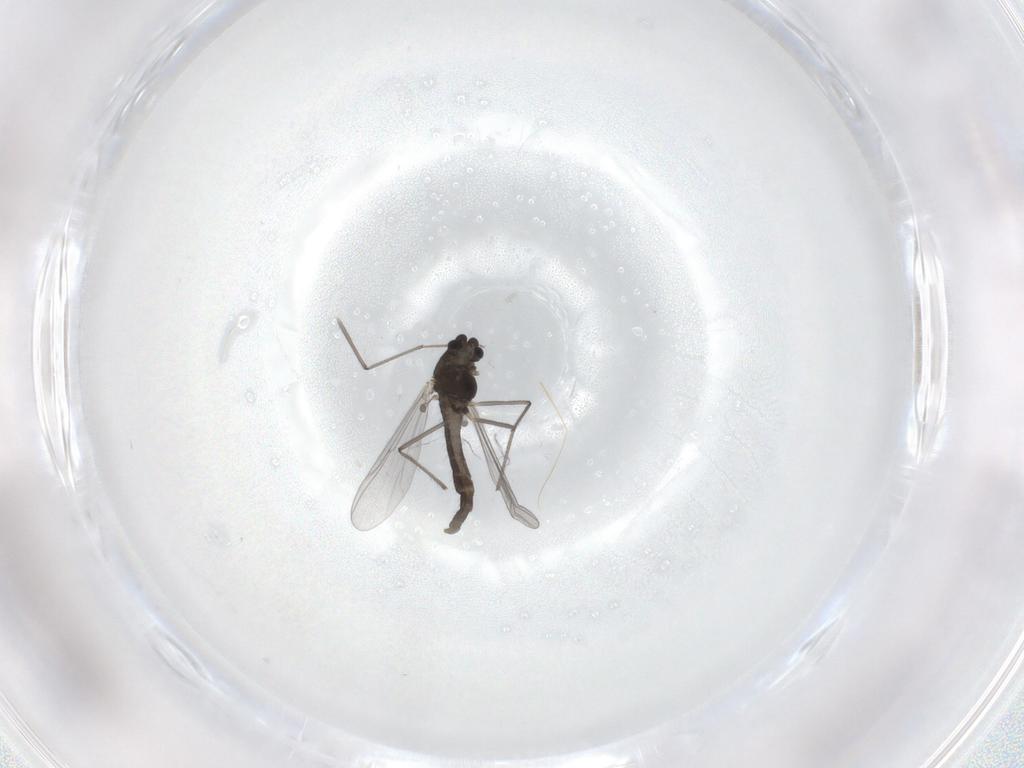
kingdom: Animalia
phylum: Arthropoda
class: Insecta
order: Diptera
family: Chironomidae
